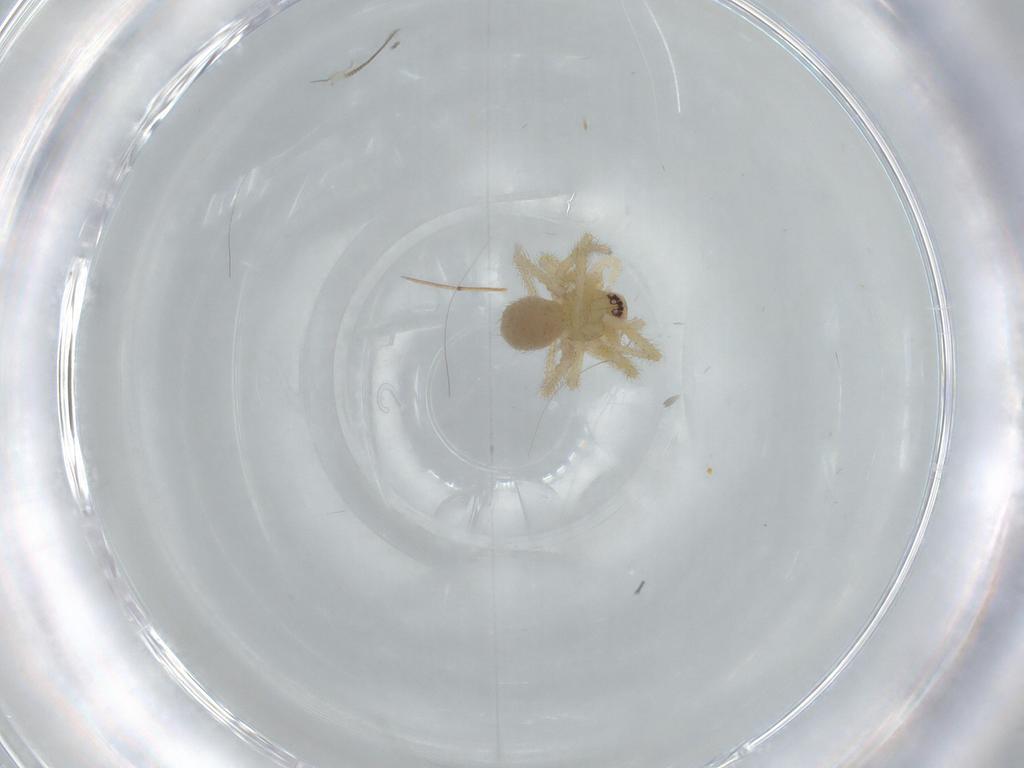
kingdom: Animalia
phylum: Arthropoda
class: Arachnida
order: Araneae
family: Nesticidae
